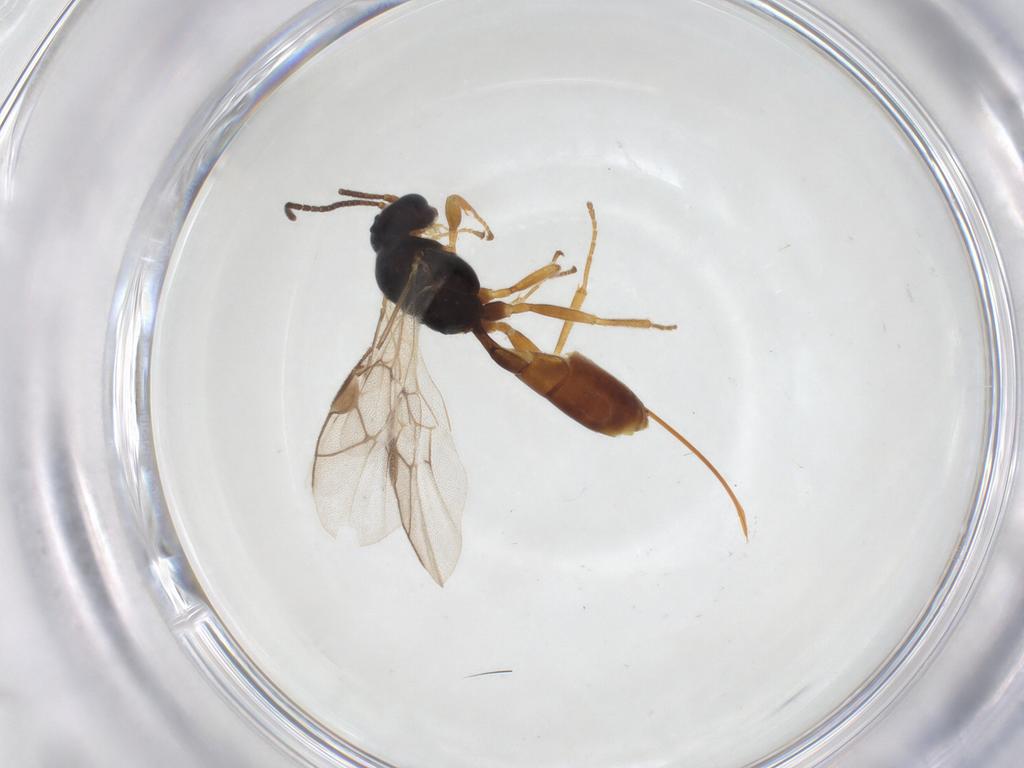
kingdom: Animalia
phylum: Arthropoda
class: Insecta
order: Hymenoptera
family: Ichneumonidae
